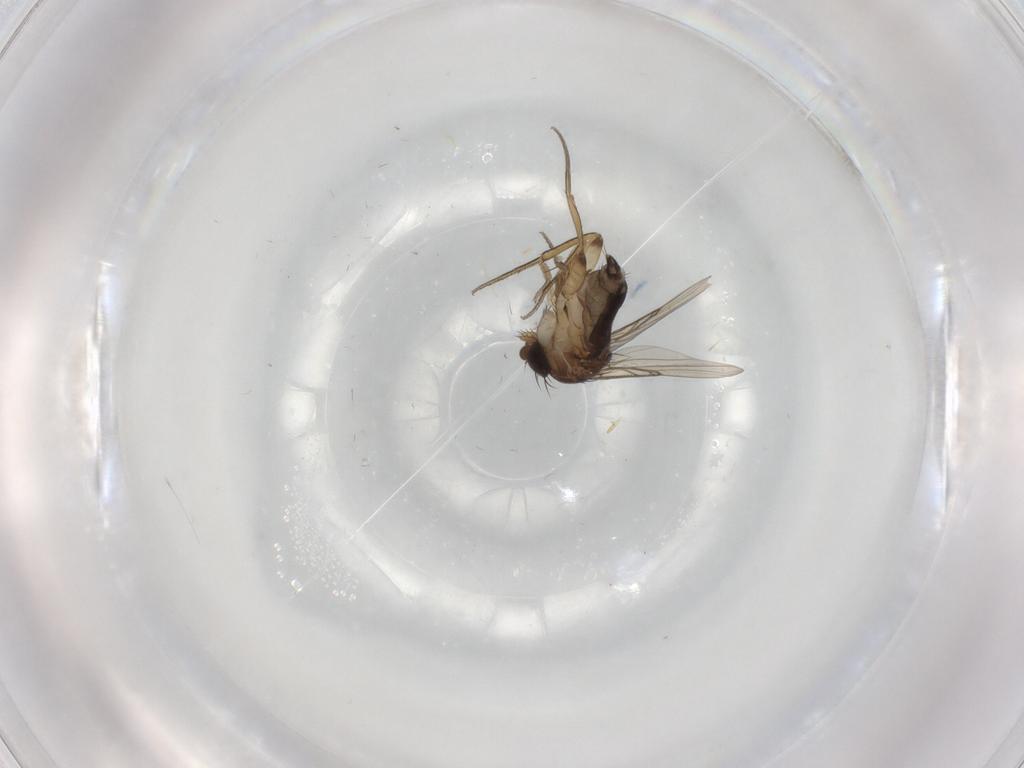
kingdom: Animalia
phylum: Arthropoda
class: Insecta
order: Diptera
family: Phoridae
